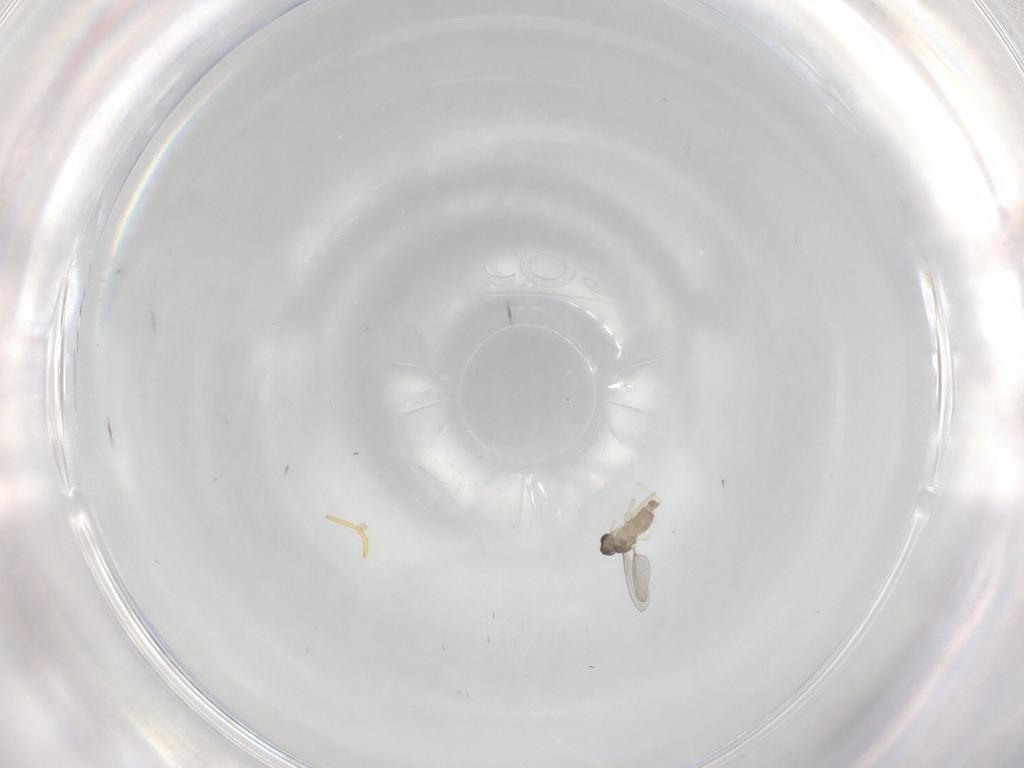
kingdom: Animalia
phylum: Arthropoda
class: Insecta
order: Diptera
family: Cecidomyiidae
